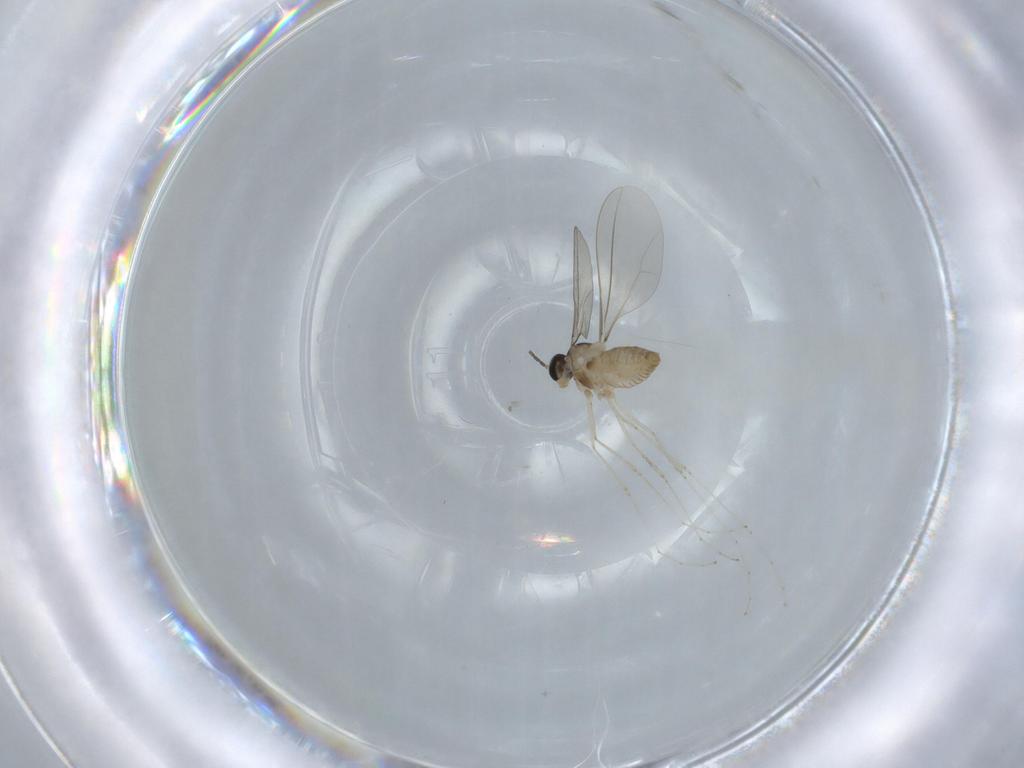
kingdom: Animalia
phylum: Arthropoda
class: Insecta
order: Diptera
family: Cecidomyiidae
